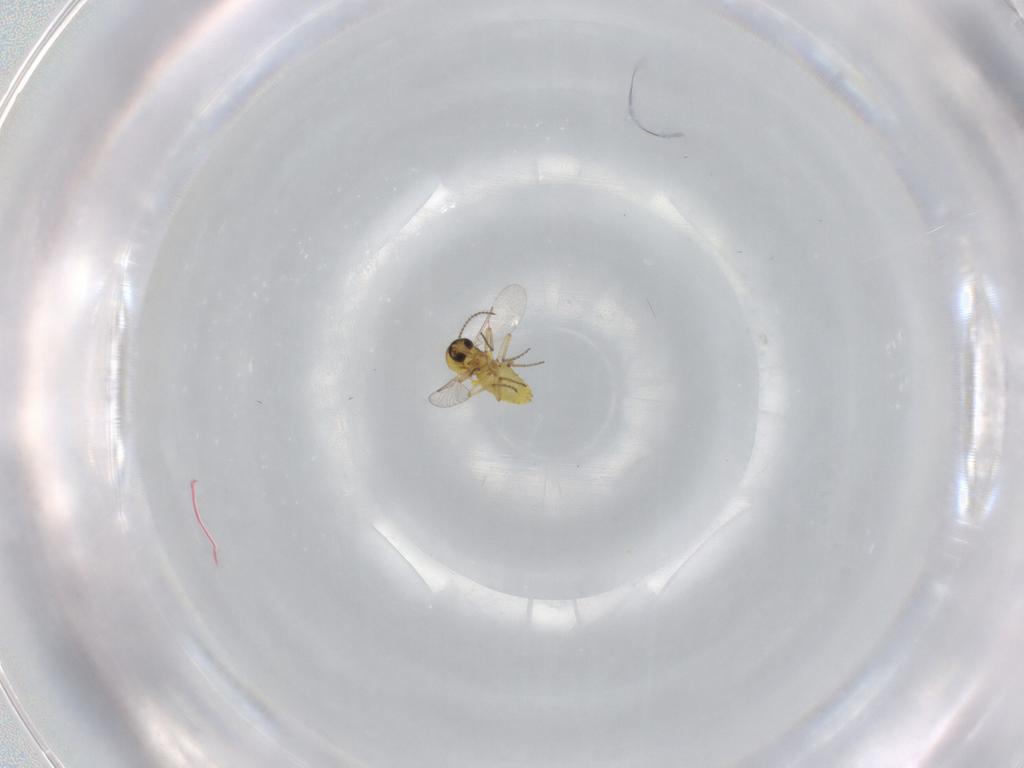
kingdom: Animalia
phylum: Arthropoda
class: Insecta
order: Diptera
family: Ceratopogonidae
